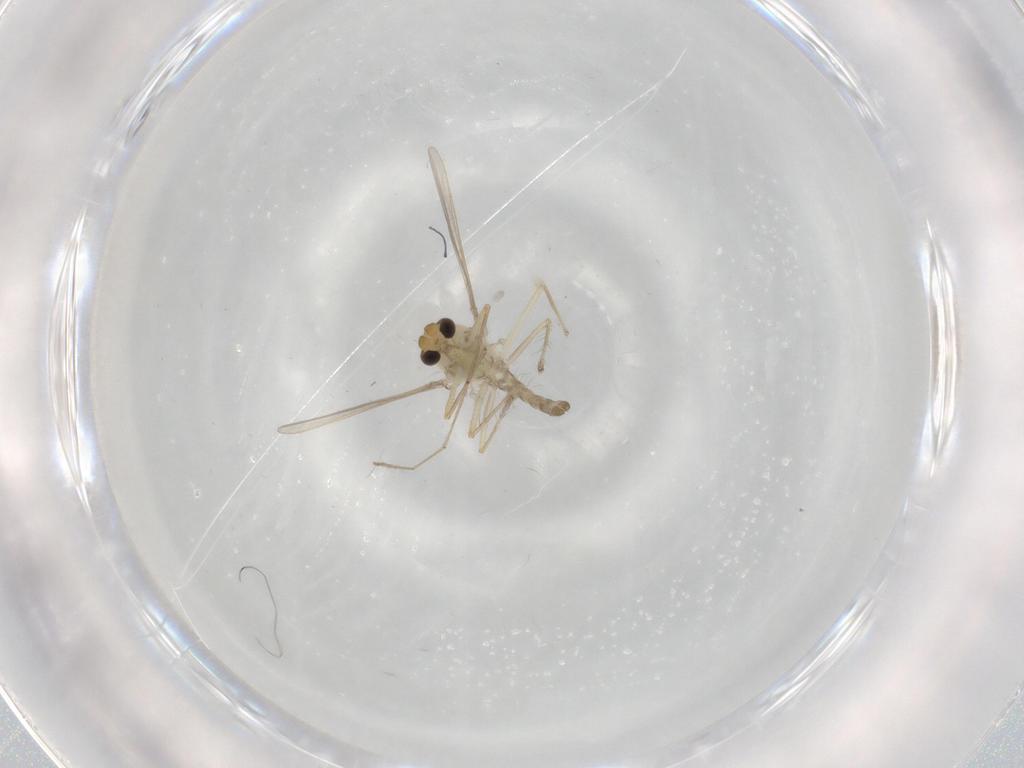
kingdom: Animalia
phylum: Arthropoda
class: Insecta
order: Diptera
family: Chironomidae
